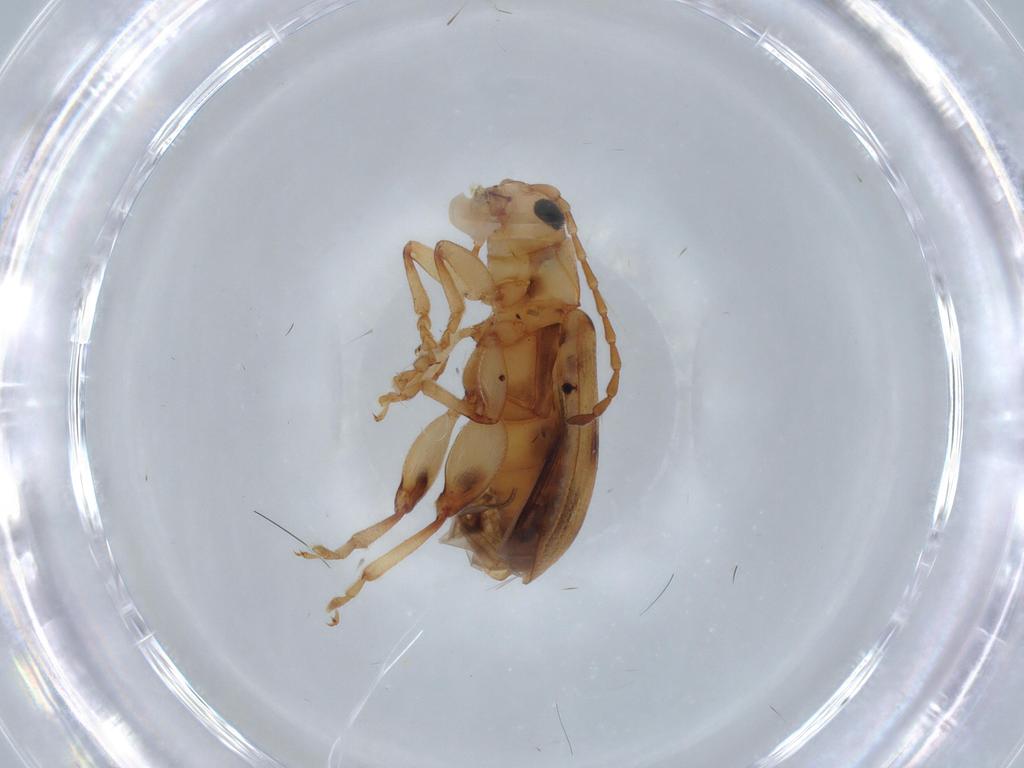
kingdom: Animalia
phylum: Arthropoda
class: Insecta
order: Coleoptera
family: Chrysomelidae
